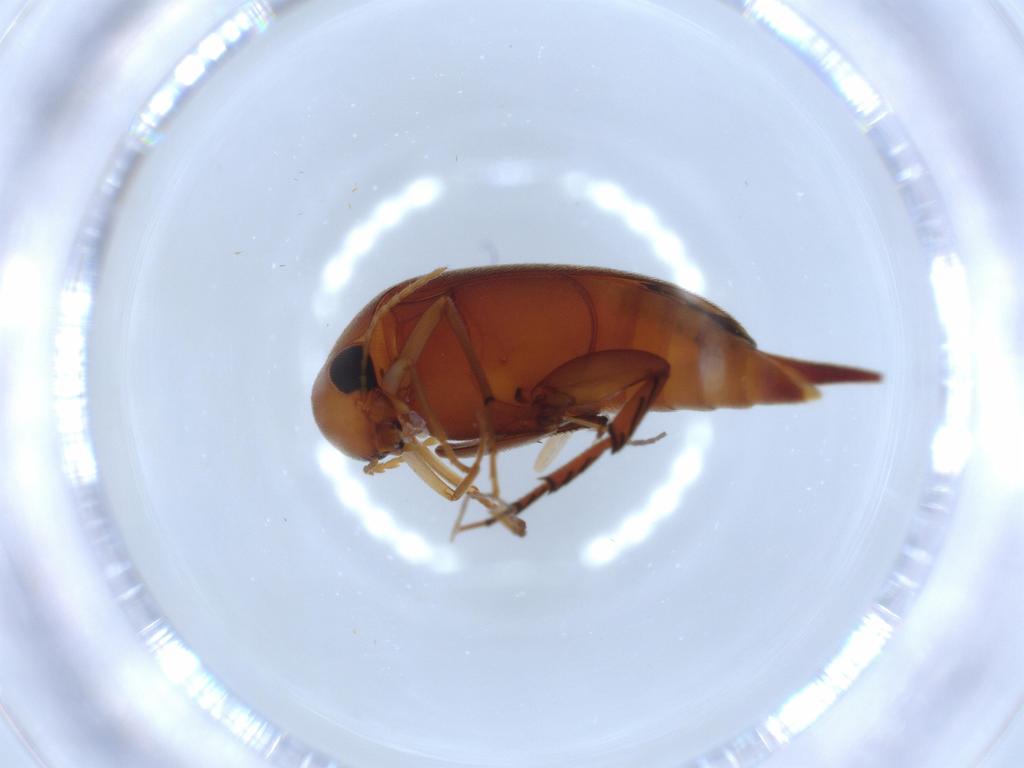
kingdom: Animalia
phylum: Arthropoda
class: Insecta
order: Coleoptera
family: Mordellidae
